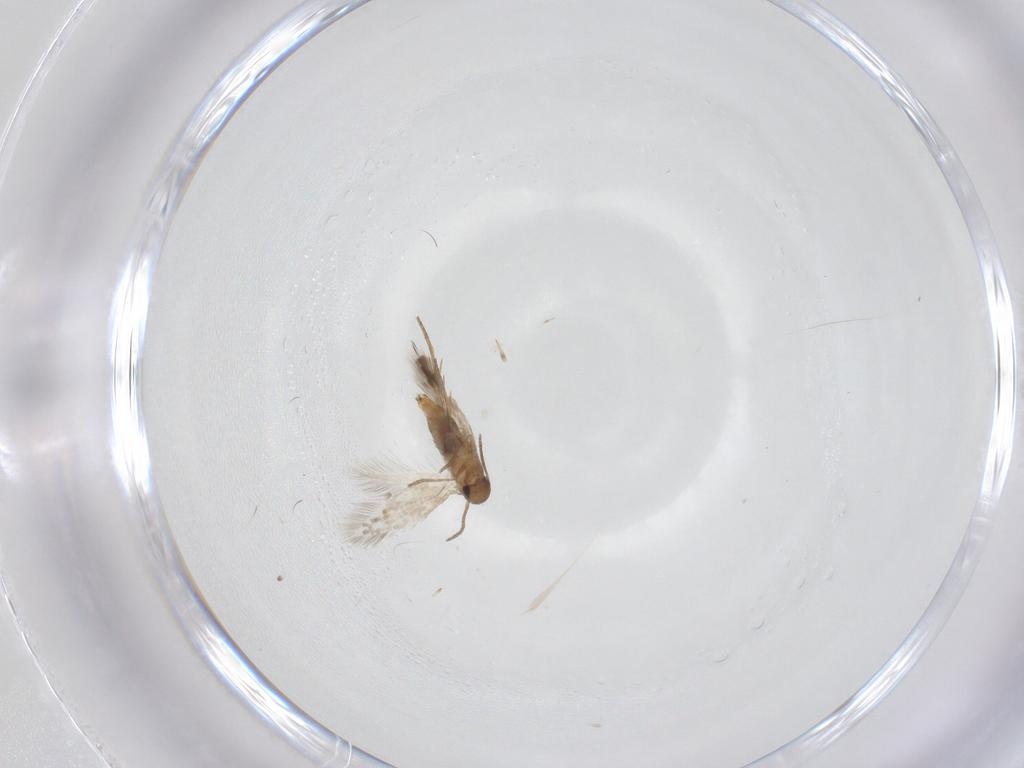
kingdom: Animalia
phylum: Arthropoda
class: Insecta
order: Lepidoptera
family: Heliozelidae
